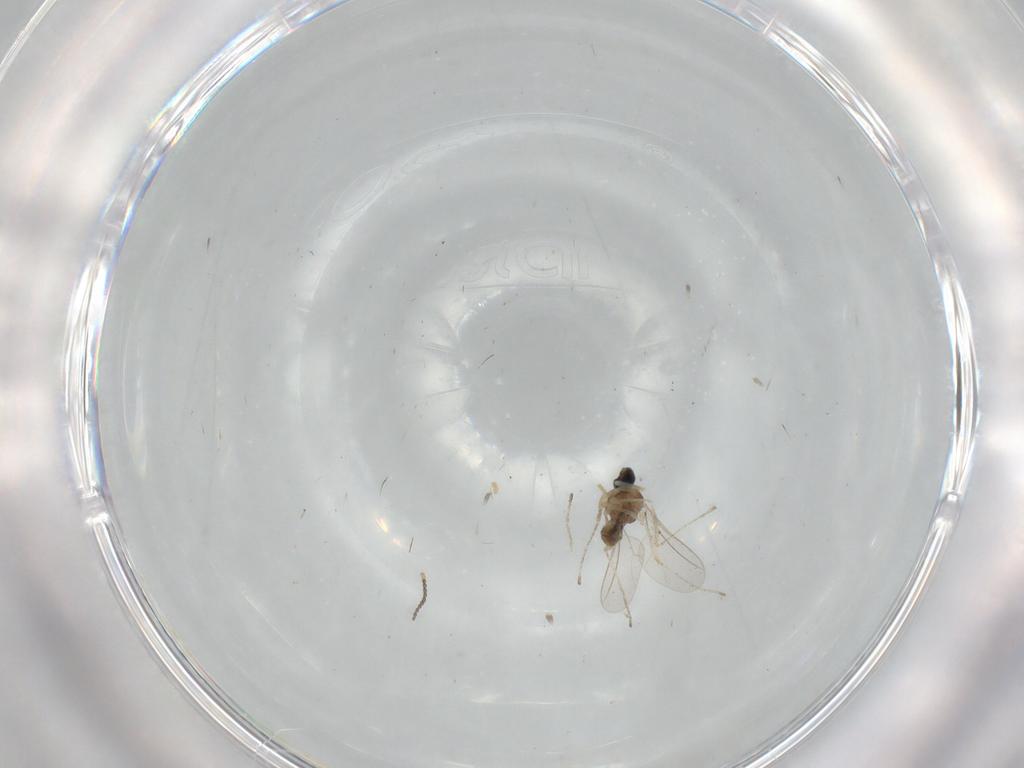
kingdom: Animalia
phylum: Arthropoda
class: Insecta
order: Diptera
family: Cecidomyiidae
